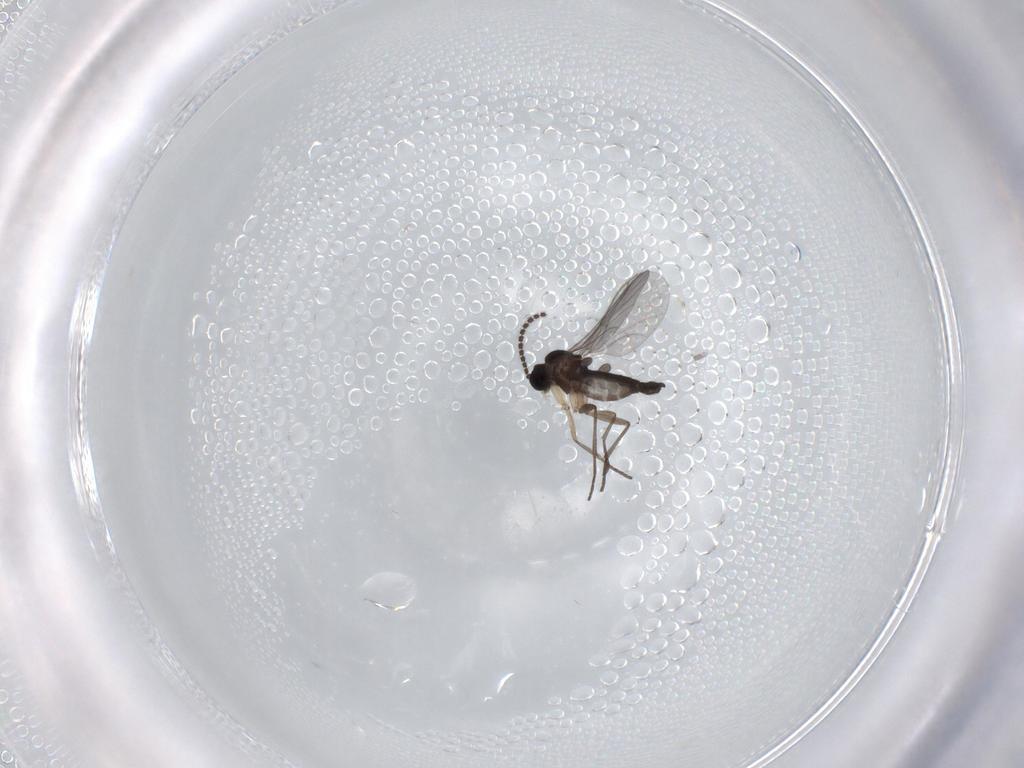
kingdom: Animalia
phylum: Arthropoda
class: Insecta
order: Diptera
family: Sciaridae
